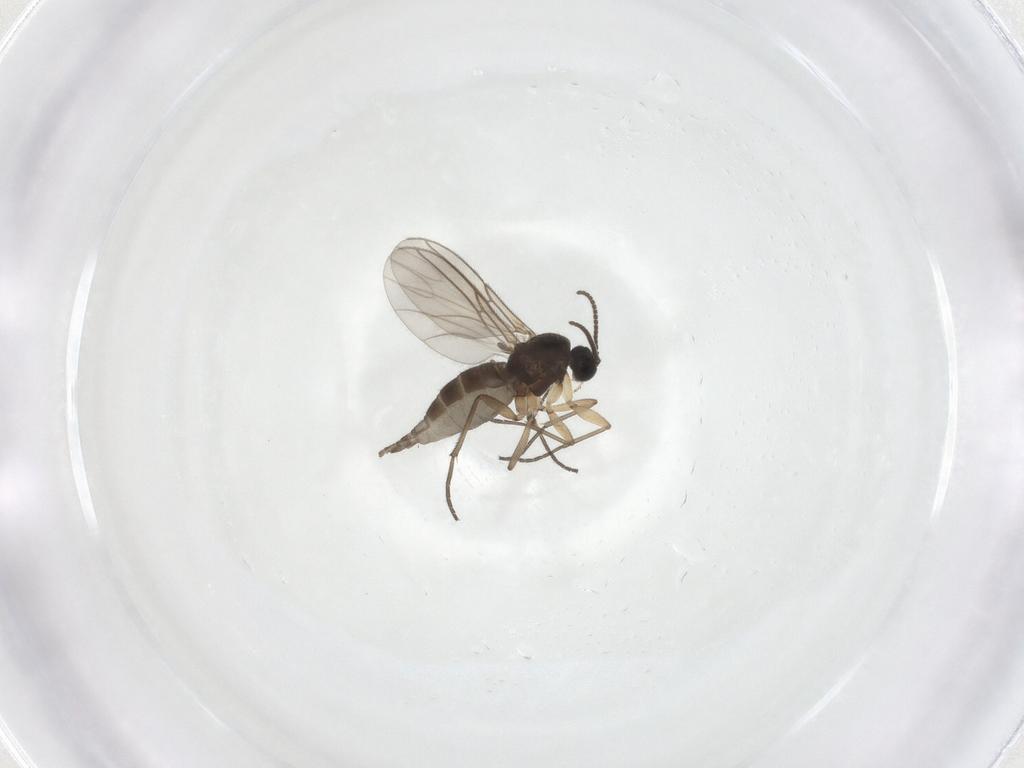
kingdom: Animalia
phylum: Arthropoda
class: Insecta
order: Diptera
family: Sciaridae
